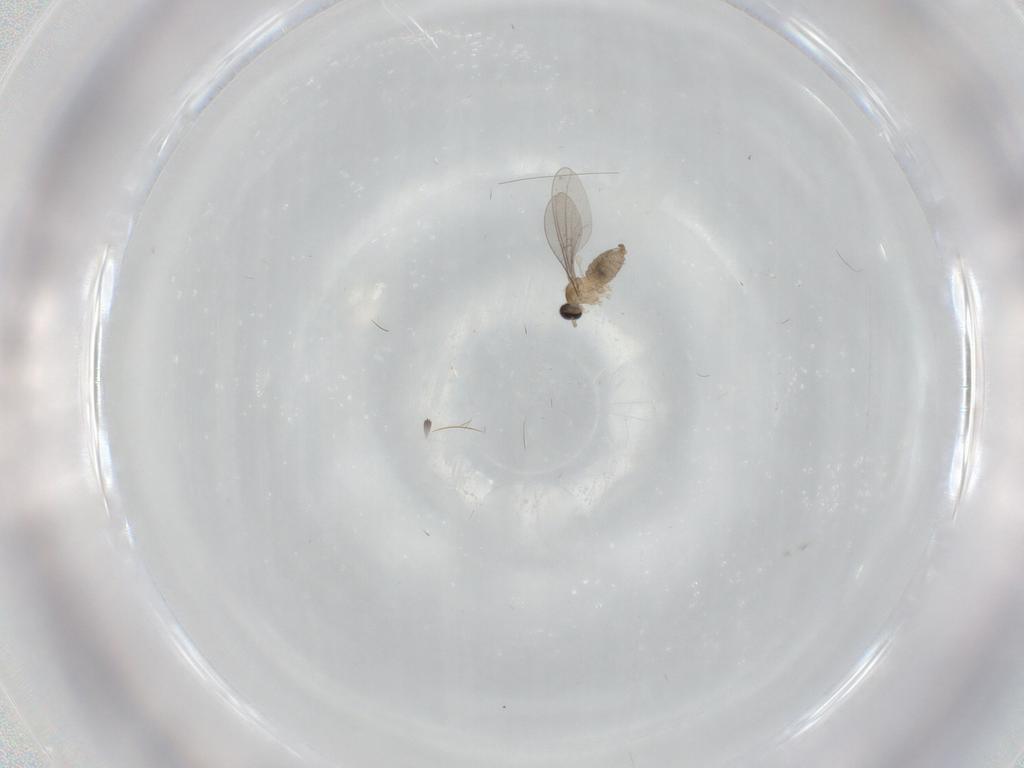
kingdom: Animalia
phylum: Arthropoda
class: Insecta
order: Diptera
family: Cecidomyiidae
